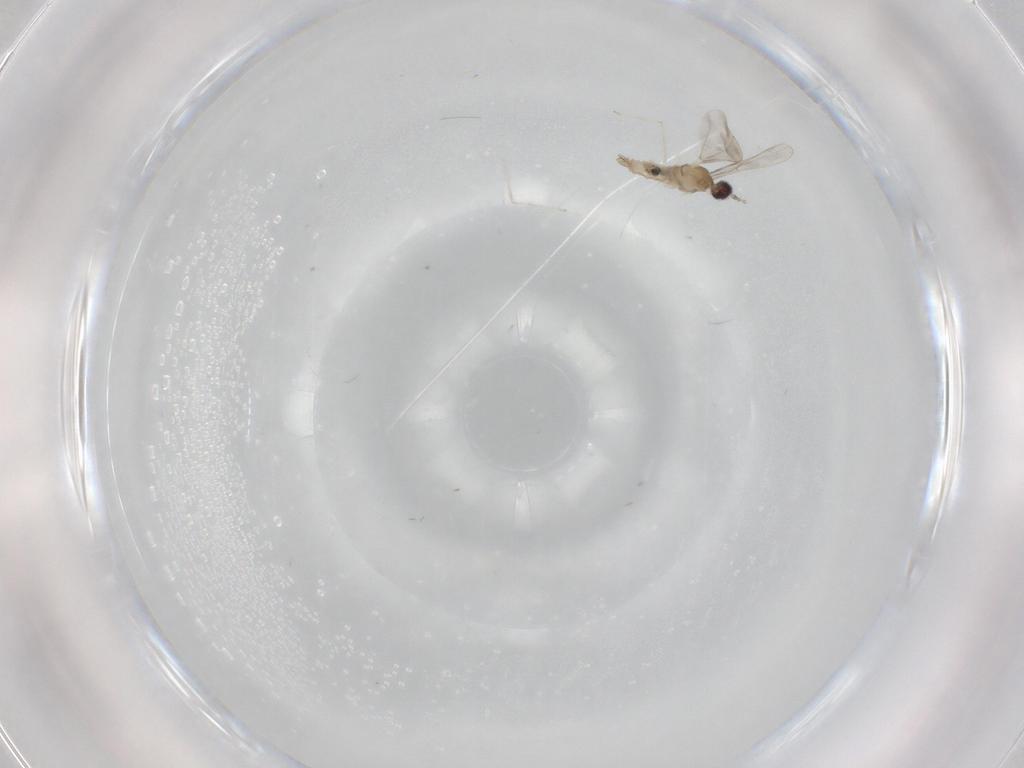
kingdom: Animalia
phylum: Arthropoda
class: Insecta
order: Diptera
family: Cecidomyiidae
